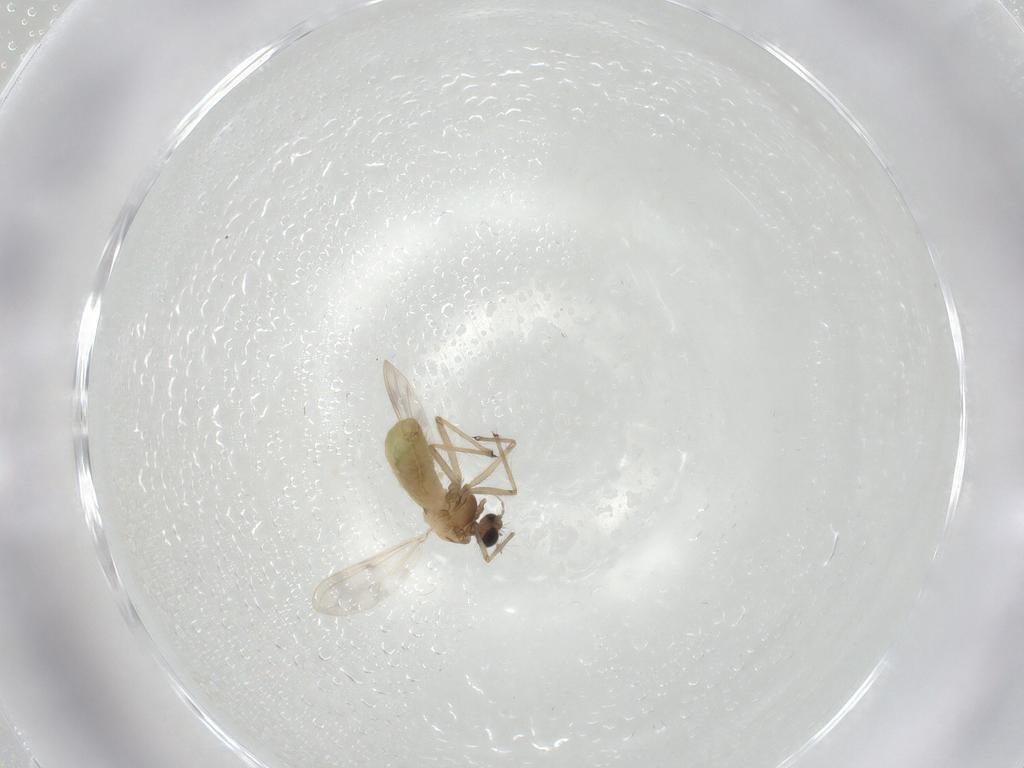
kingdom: Animalia
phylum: Arthropoda
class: Insecta
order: Diptera
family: Chironomidae
